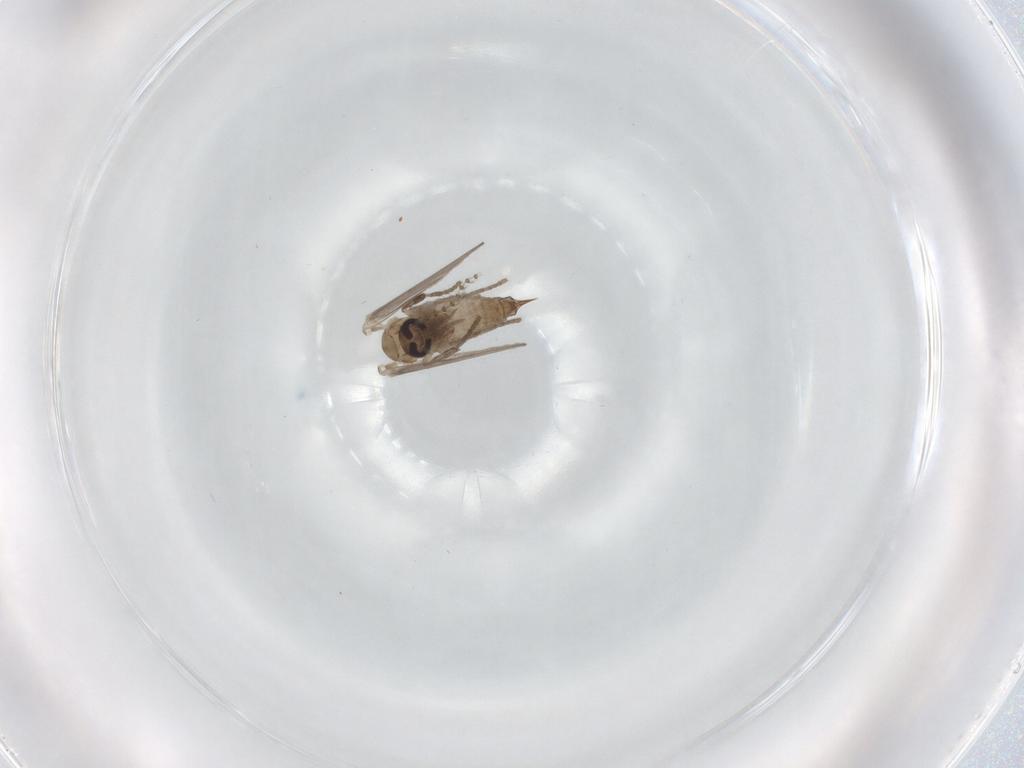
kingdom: Animalia
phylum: Arthropoda
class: Insecta
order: Diptera
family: Psychodidae
